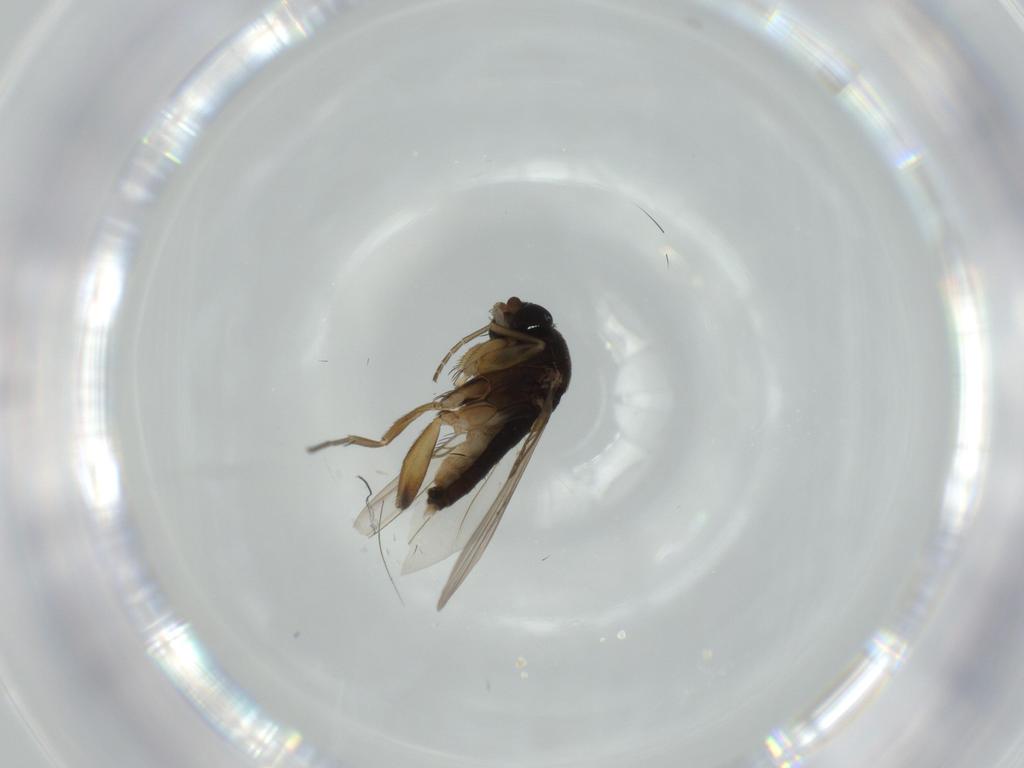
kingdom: Animalia
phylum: Arthropoda
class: Insecta
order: Diptera
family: Phoridae
